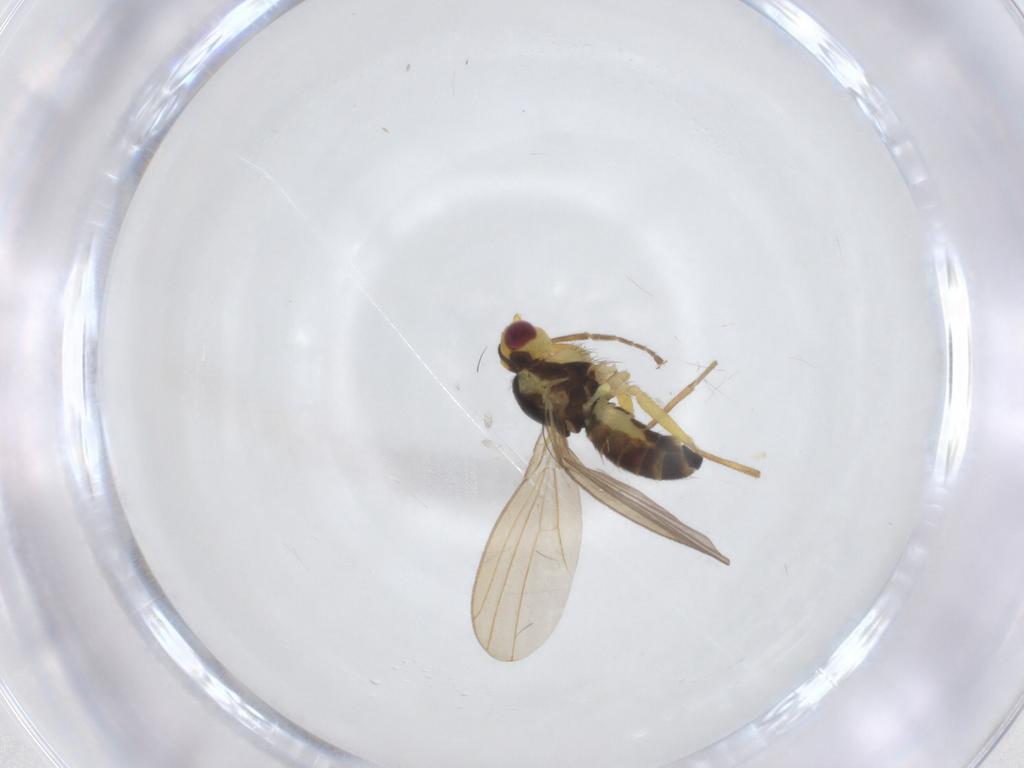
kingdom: Animalia
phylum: Arthropoda
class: Insecta
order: Diptera
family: Agromyzidae
